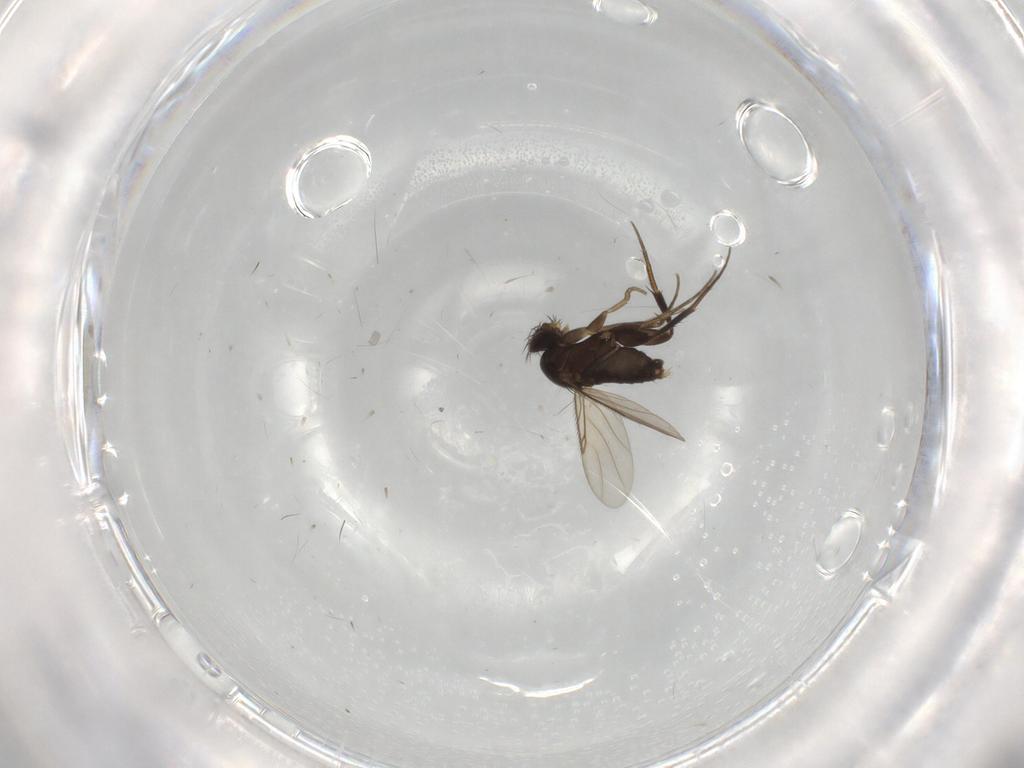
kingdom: Animalia
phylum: Arthropoda
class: Insecta
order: Diptera
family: Phoridae
